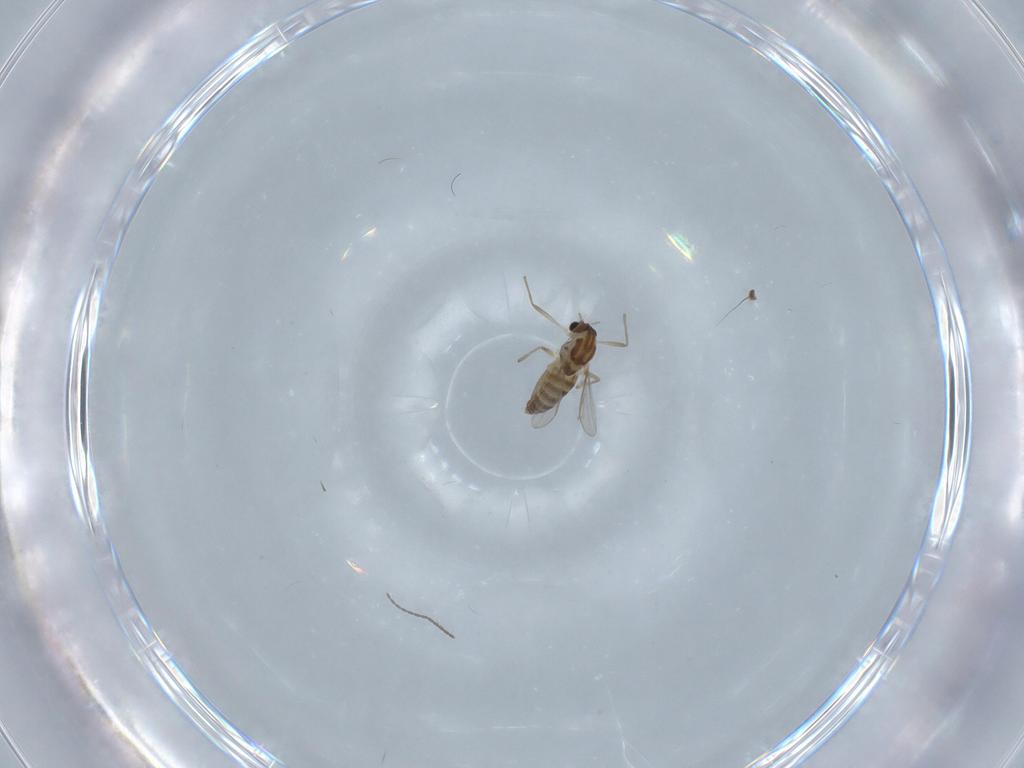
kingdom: Animalia
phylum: Arthropoda
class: Insecta
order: Diptera
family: Chironomidae
